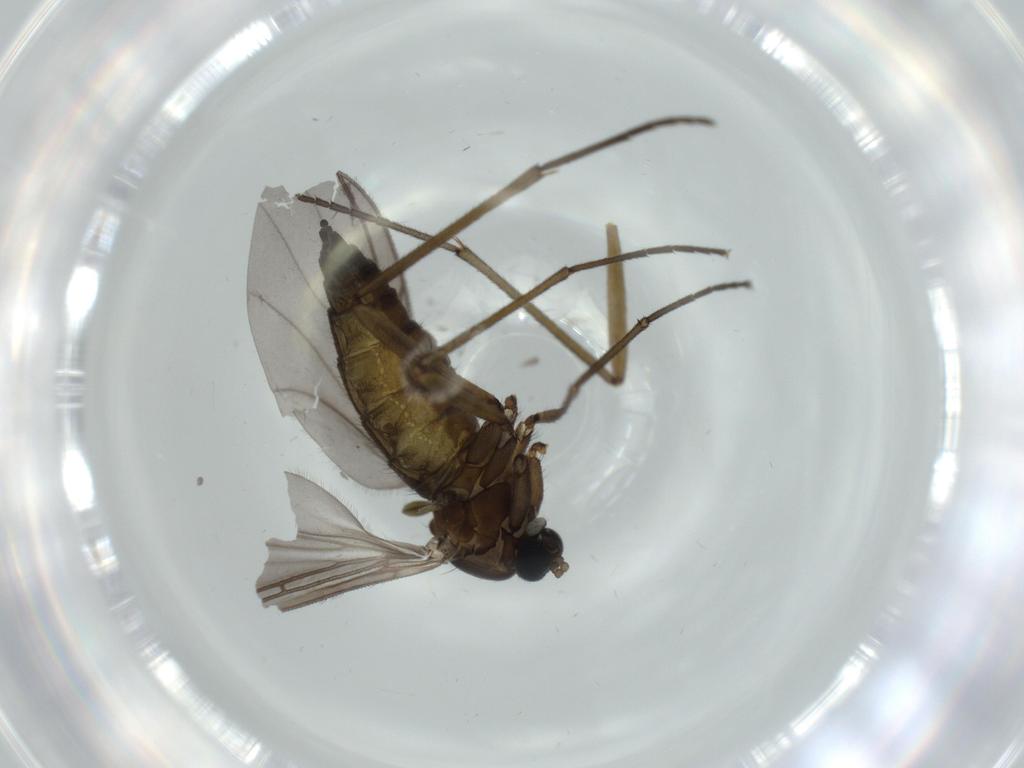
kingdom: Animalia
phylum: Arthropoda
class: Insecta
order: Diptera
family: Sciaridae
